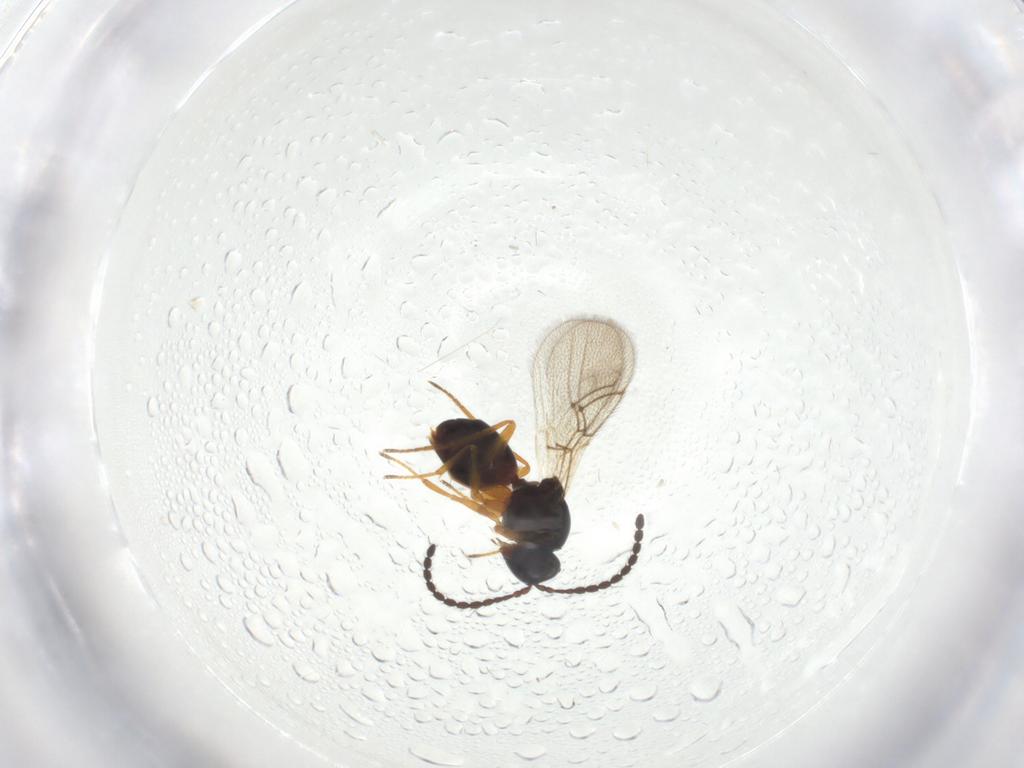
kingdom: Animalia
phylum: Arthropoda
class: Insecta
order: Hymenoptera
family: Figitidae
